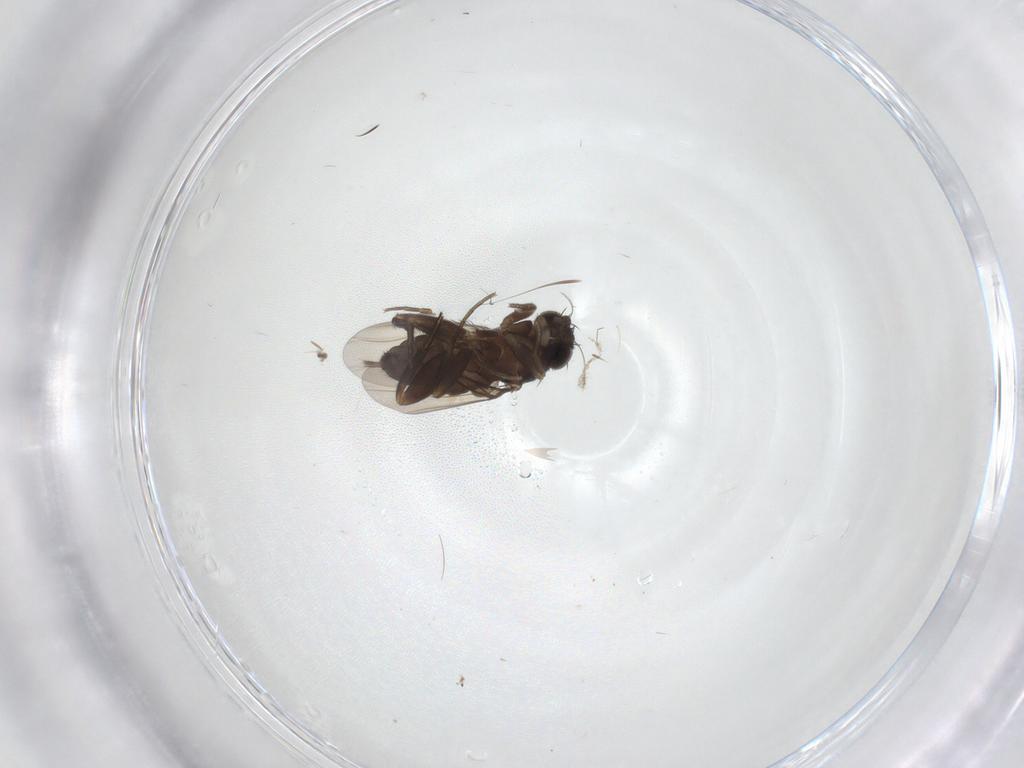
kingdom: Animalia
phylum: Arthropoda
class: Insecta
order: Diptera
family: Phoridae
